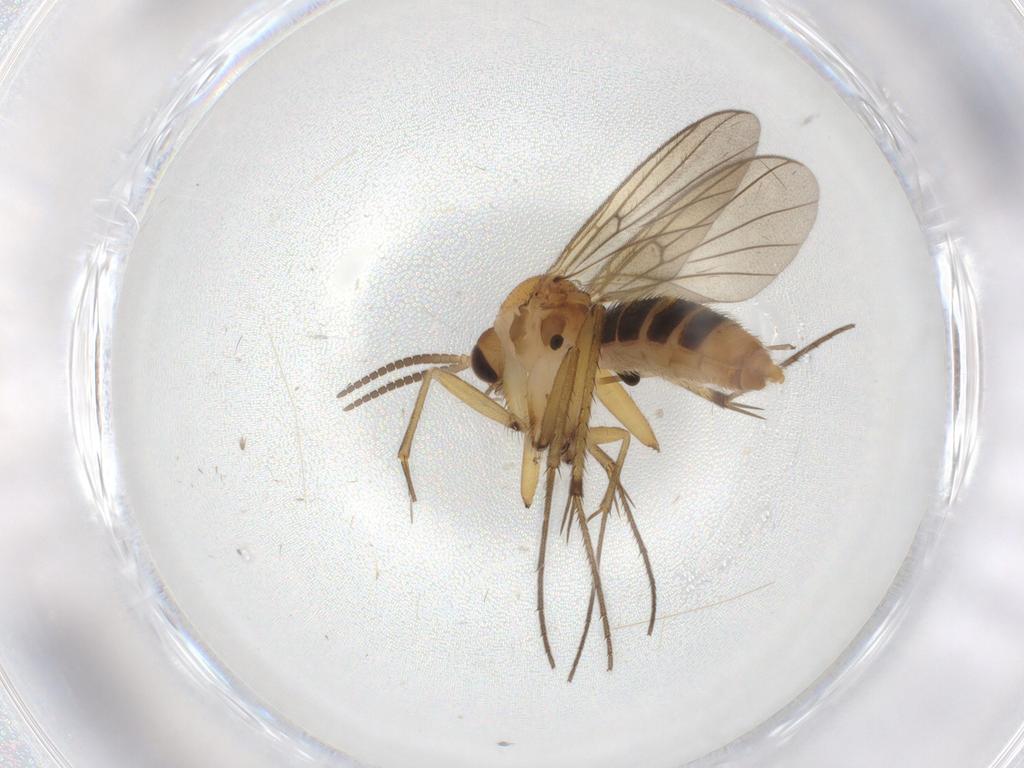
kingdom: Animalia
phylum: Arthropoda
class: Insecta
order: Diptera
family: Mycetophilidae
